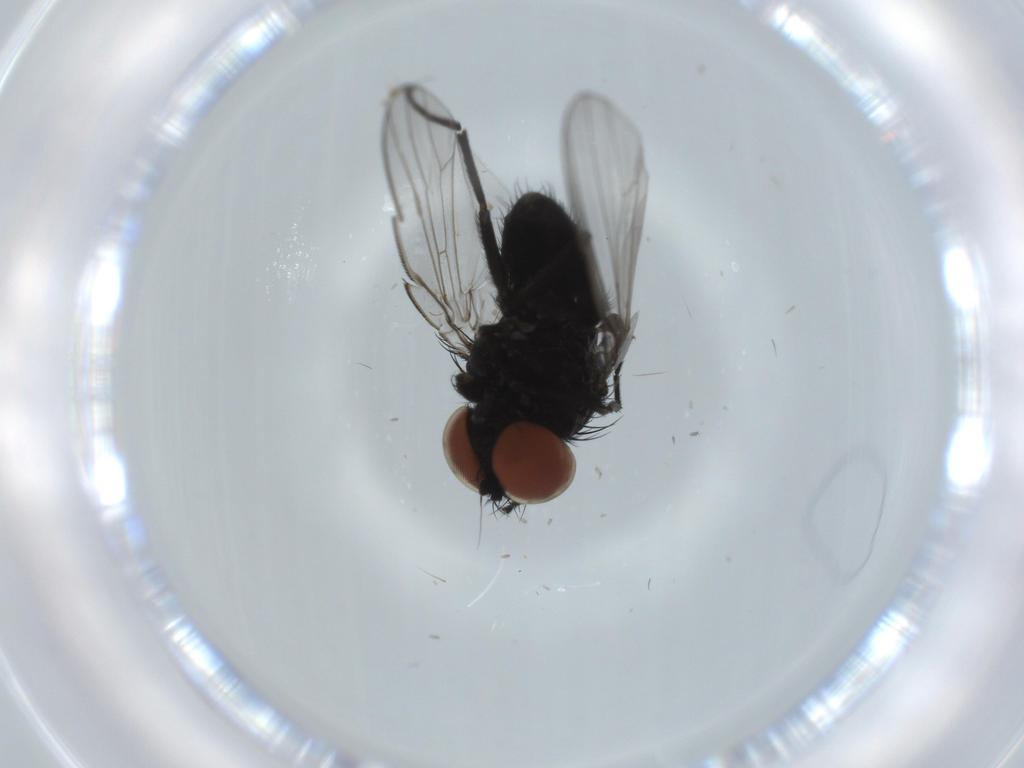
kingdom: Animalia
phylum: Arthropoda
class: Insecta
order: Diptera
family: Milichiidae
